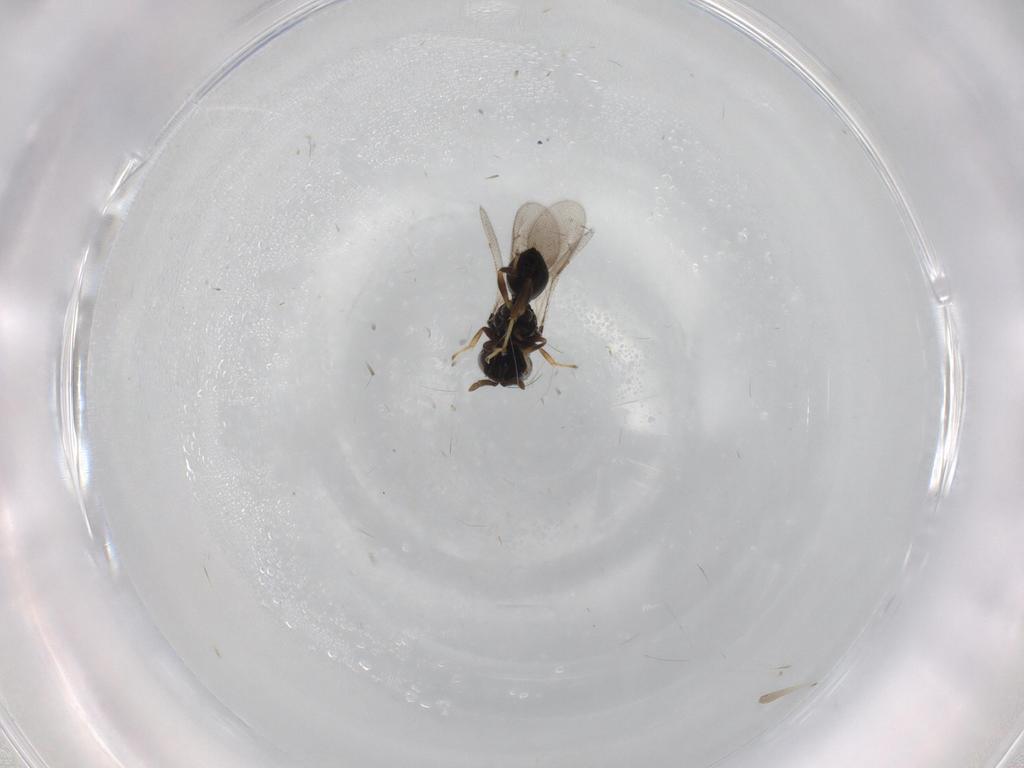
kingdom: Animalia
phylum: Arthropoda
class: Insecta
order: Hymenoptera
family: Pteromalidae
